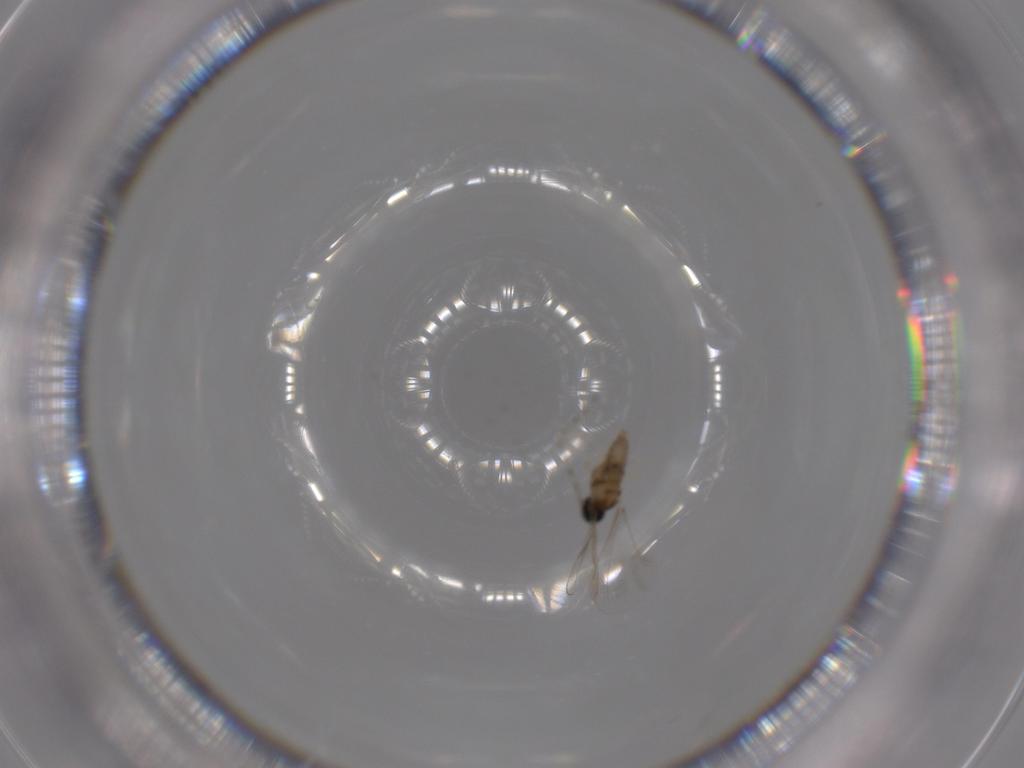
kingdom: Animalia
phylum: Arthropoda
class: Insecta
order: Diptera
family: Cecidomyiidae
